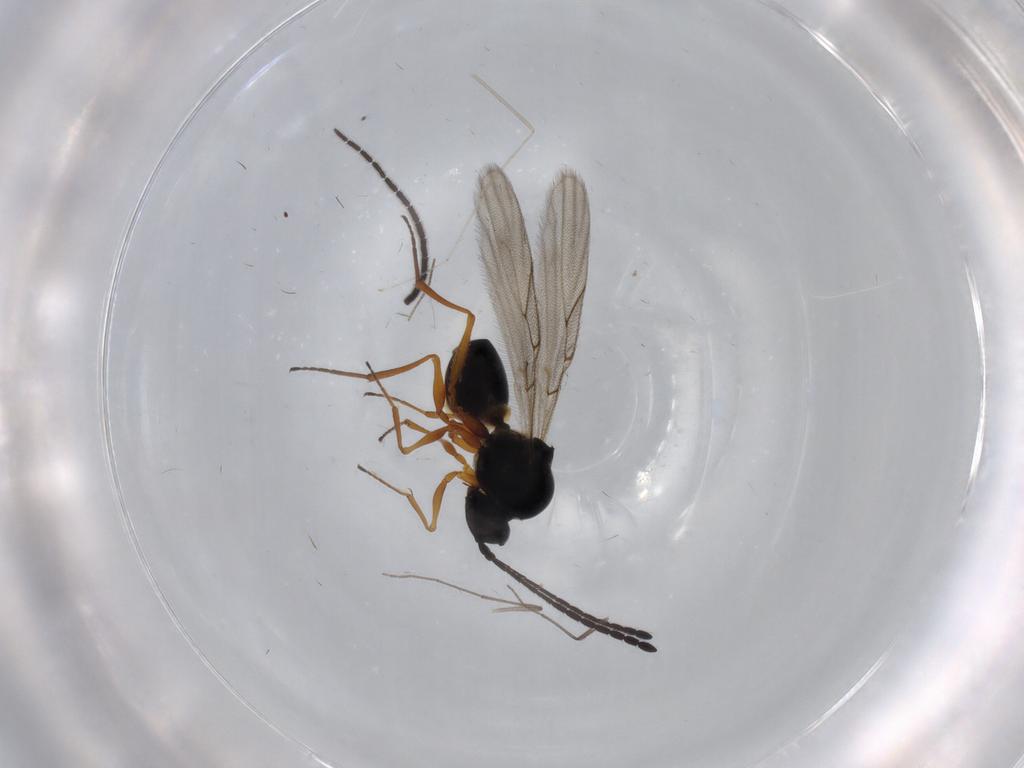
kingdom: Animalia
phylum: Arthropoda
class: Insecta
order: Hymenoptera
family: Figitidae
